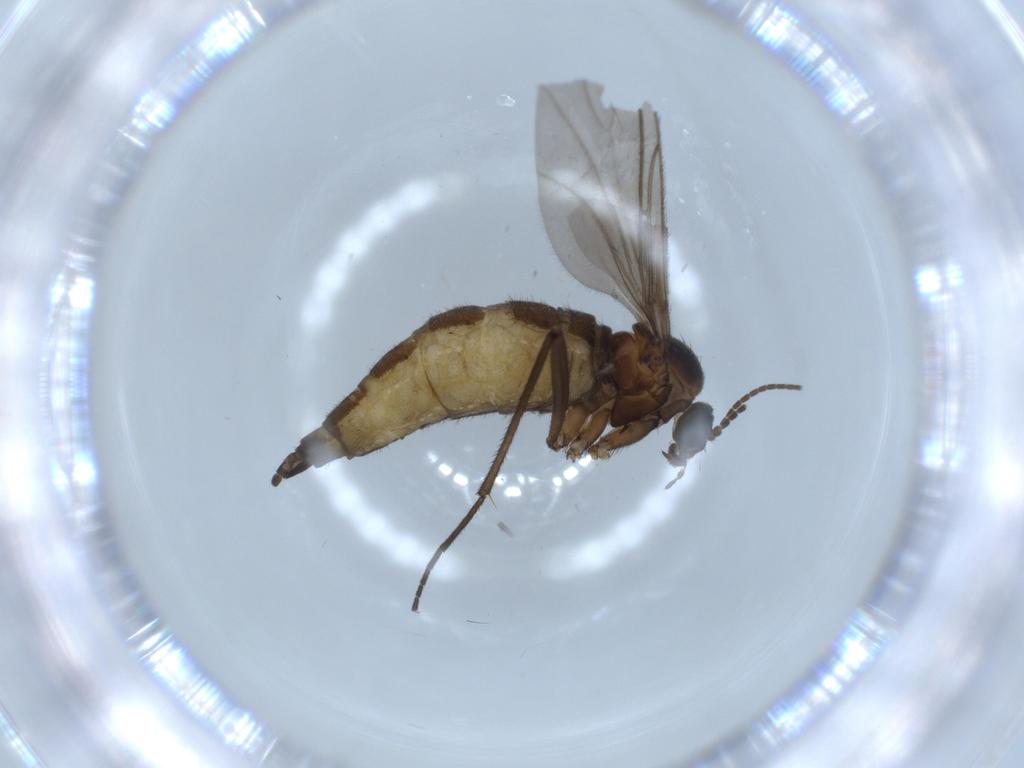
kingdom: Animalia
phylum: Arthropoda
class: Insecta
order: Diptera
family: Sciaridae
